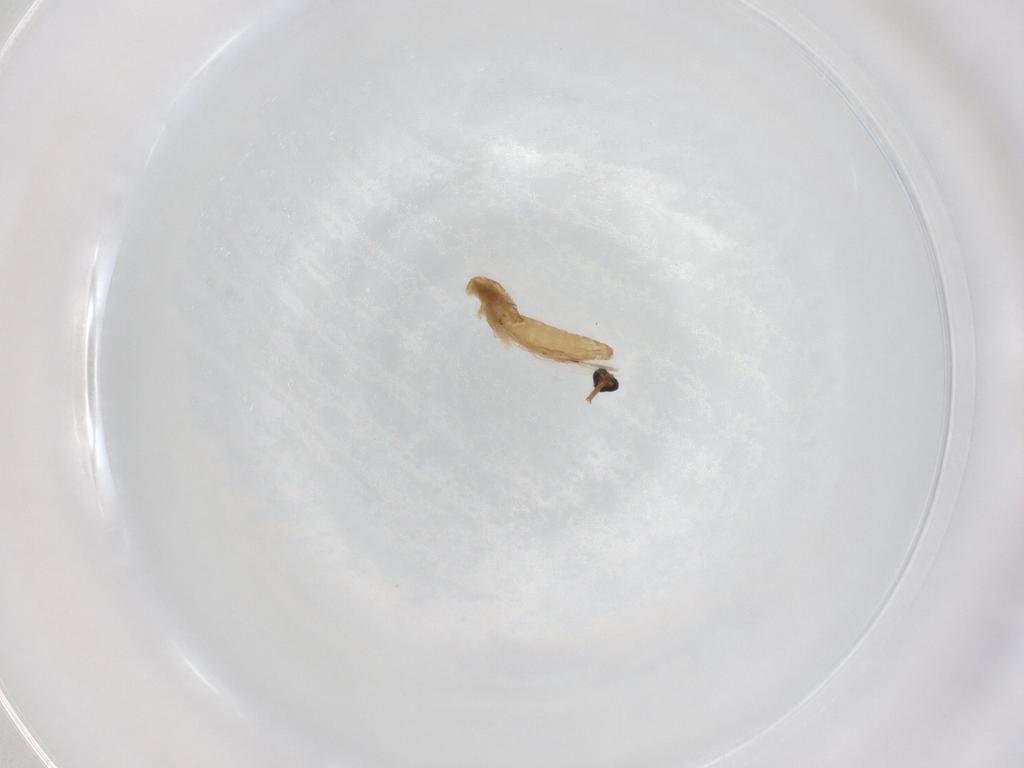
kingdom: Animalia
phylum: Arthropoda
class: Insecta
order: Diptera
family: Chironomidae
